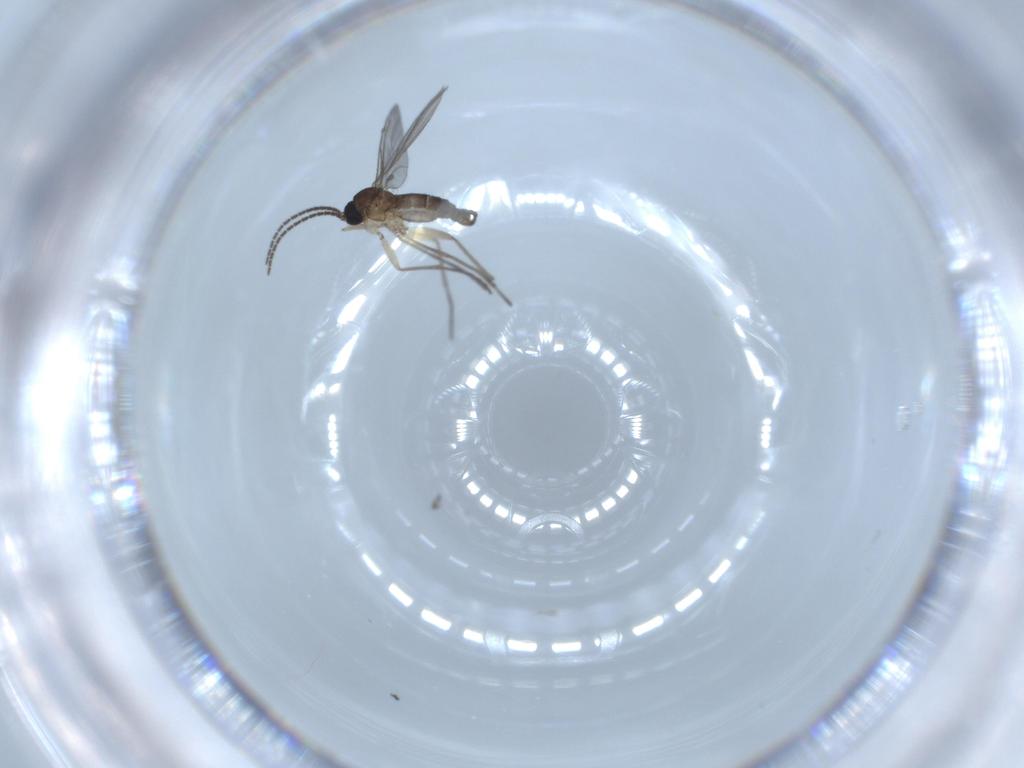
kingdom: Animalia
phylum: Arthropoda
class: Insecta
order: Diptera
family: Sciaridae
